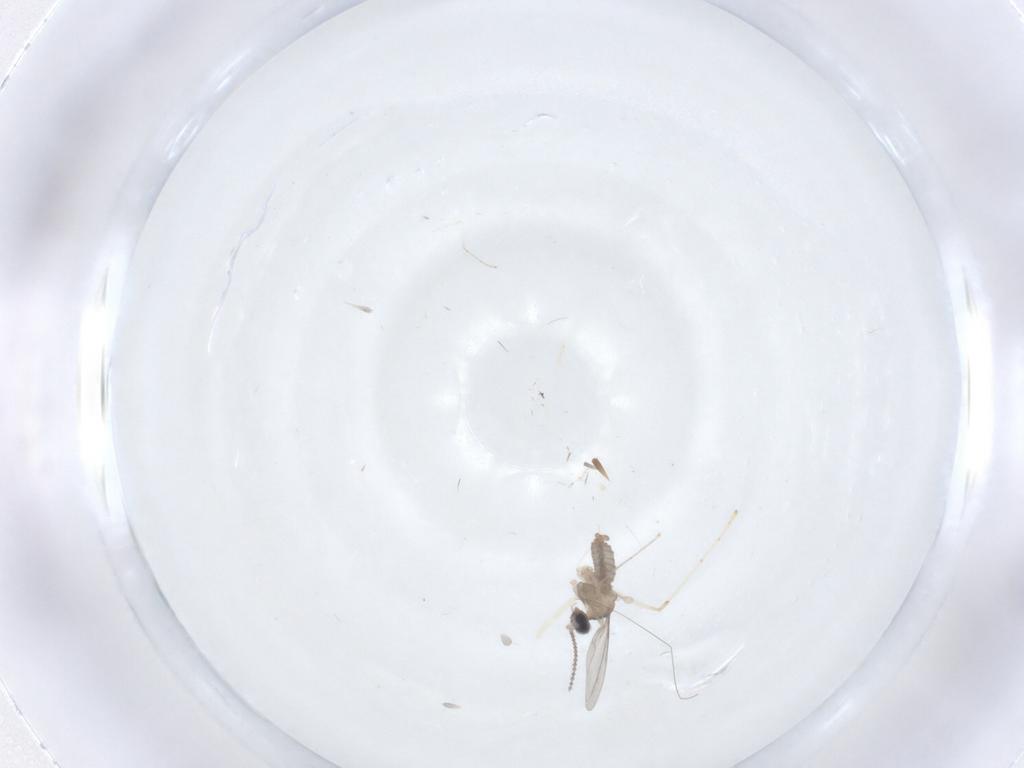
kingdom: Animalia
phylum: Arthropoda
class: Insecta
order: Diptera
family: Cecidomyiidae
